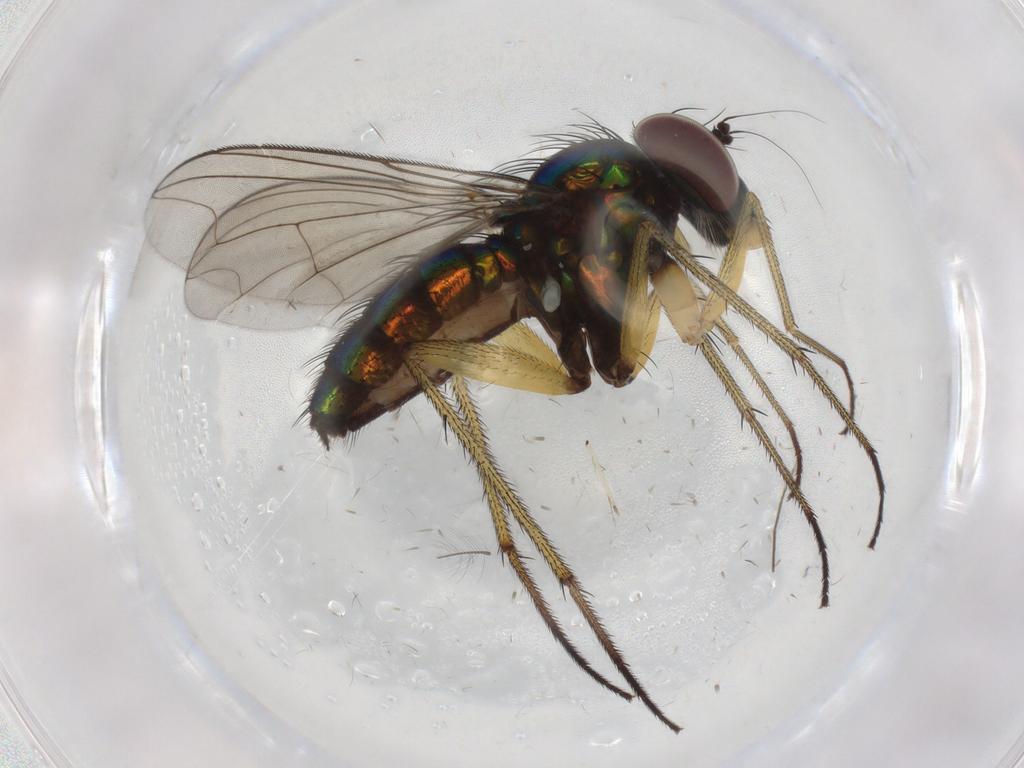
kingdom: Animalia
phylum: Arthropoda
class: Insecta
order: Diptera
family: Dolichopodidae
